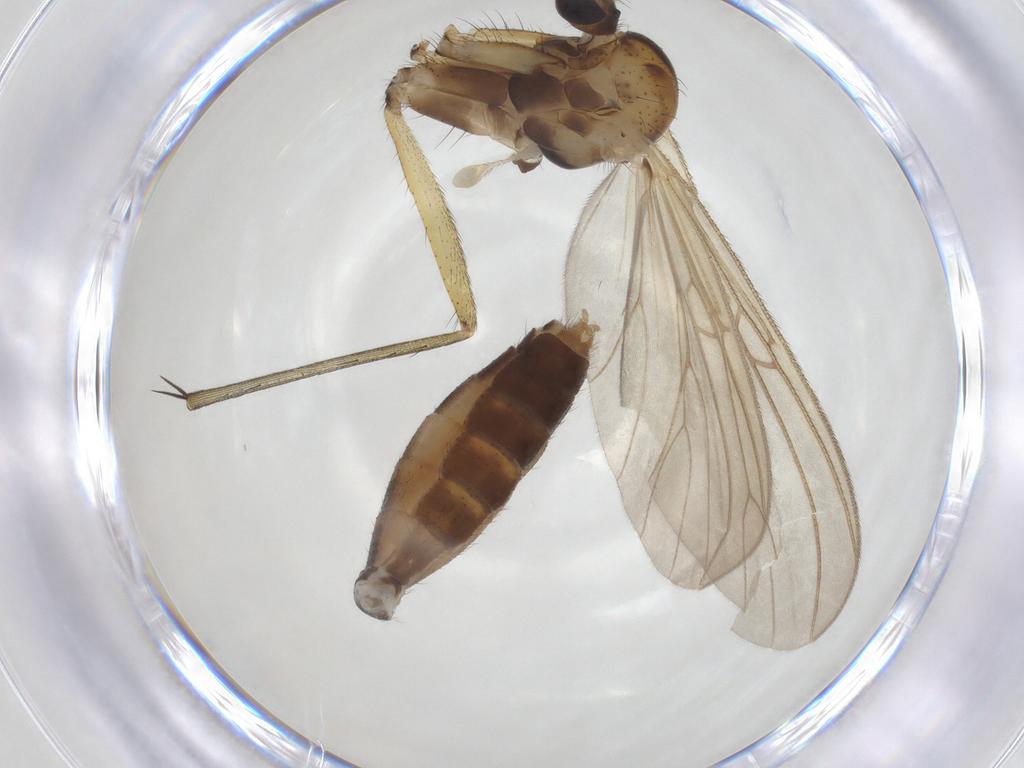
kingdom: Animalia
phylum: Arthropoda
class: Insecta
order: Diptera
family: Mycetophilidae
